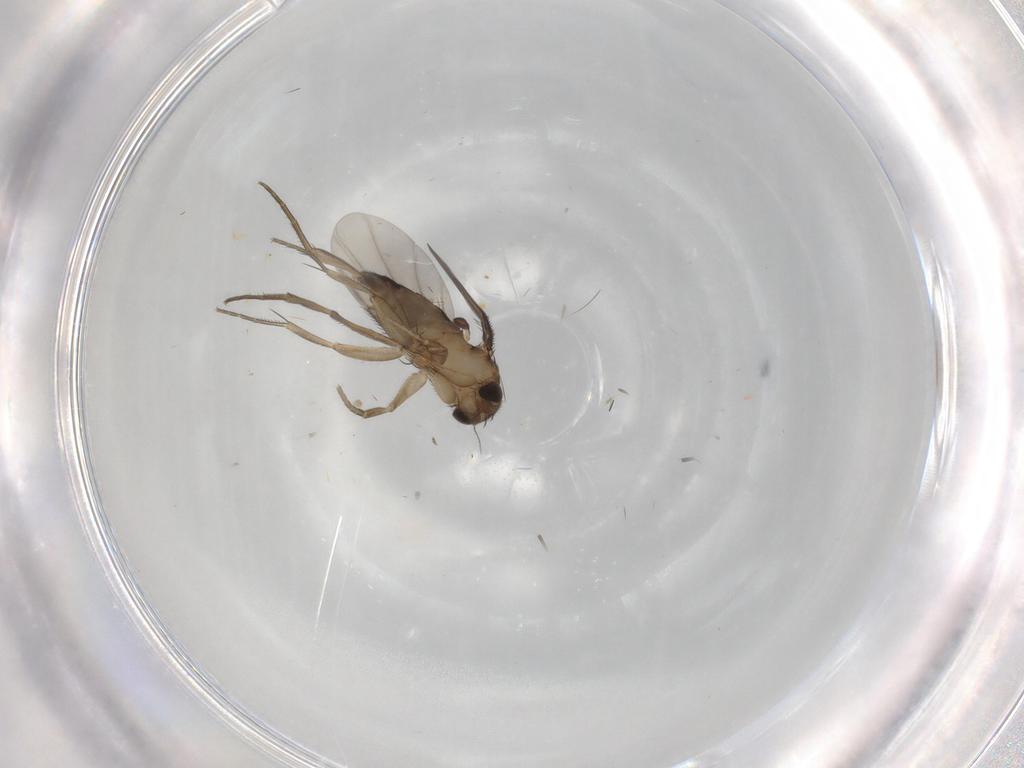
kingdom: Animalia
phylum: Arthropoda
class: Insecta
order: Diptera
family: Phoridae
